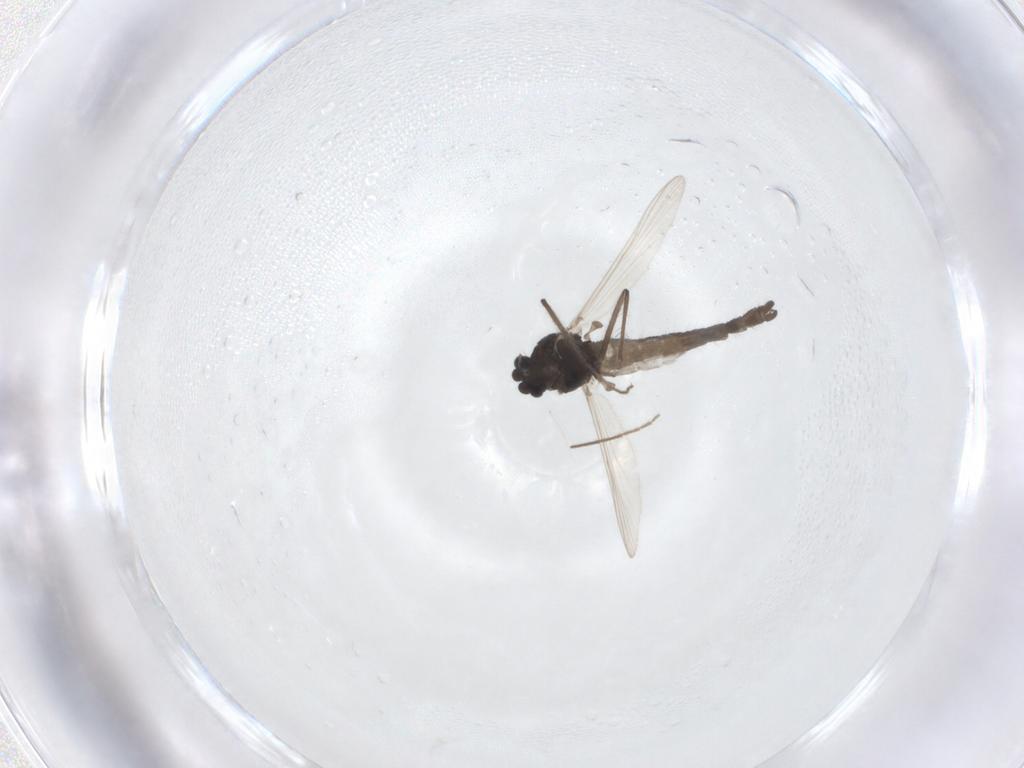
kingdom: Animalia
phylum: Arthropoda
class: Insecta
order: Diptera
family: Chironomidae
